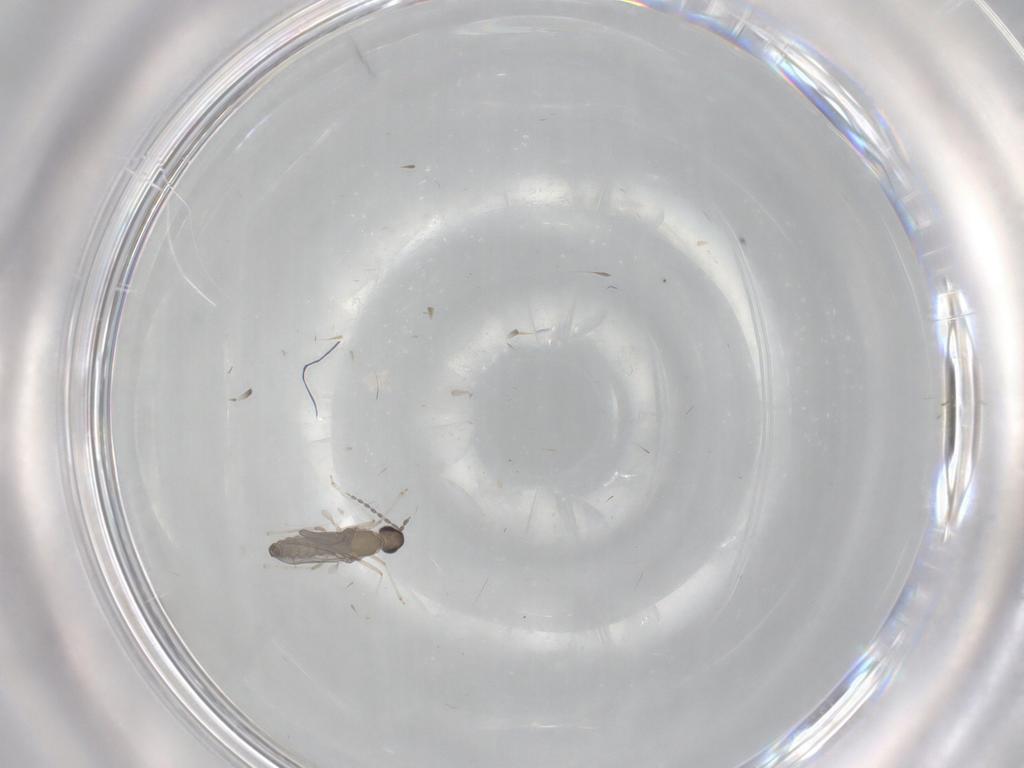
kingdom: Animalia
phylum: Arthropoda
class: Insecta
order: Diptera
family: Cecidomyiidae
